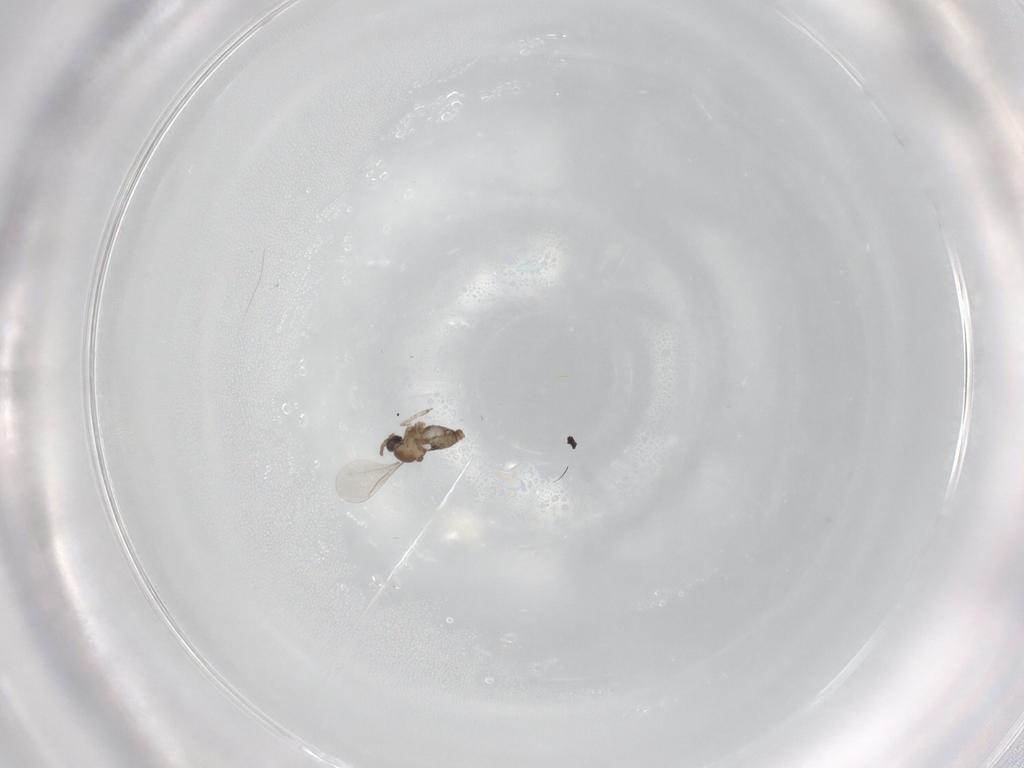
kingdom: Animalia
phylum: Arthropoda
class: Insecta
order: Diptera
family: Cecidomyiidae
